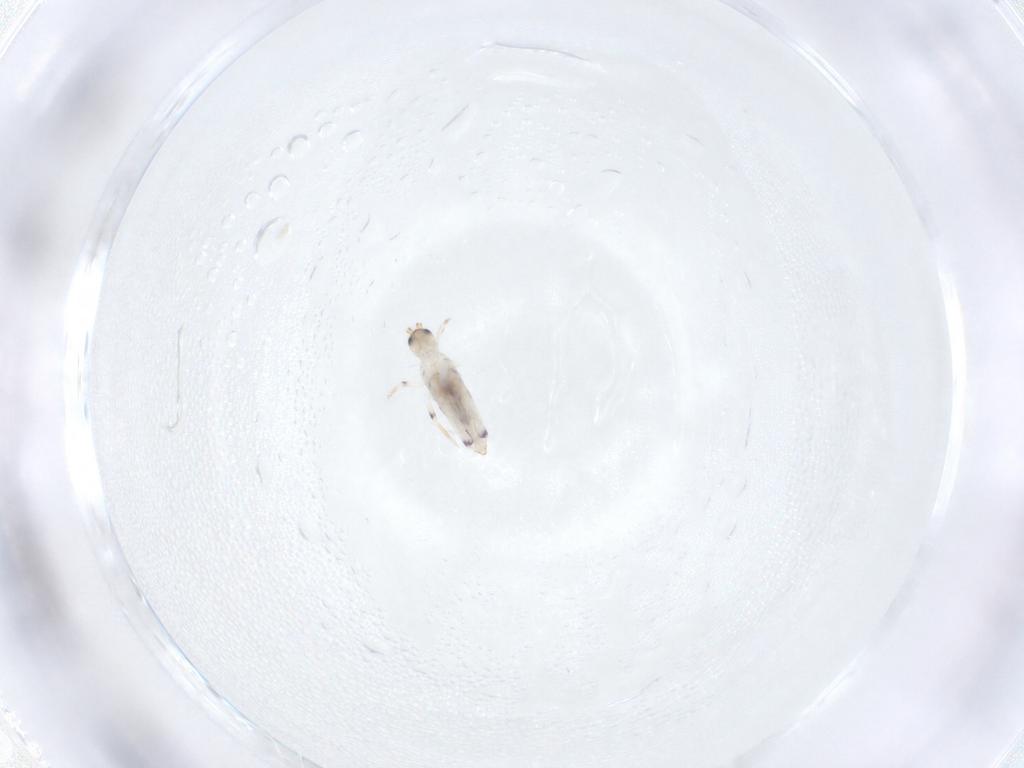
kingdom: Animalia
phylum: Arthropoda
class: Collembola
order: Entomobryomorpha
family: Entomobryidae
